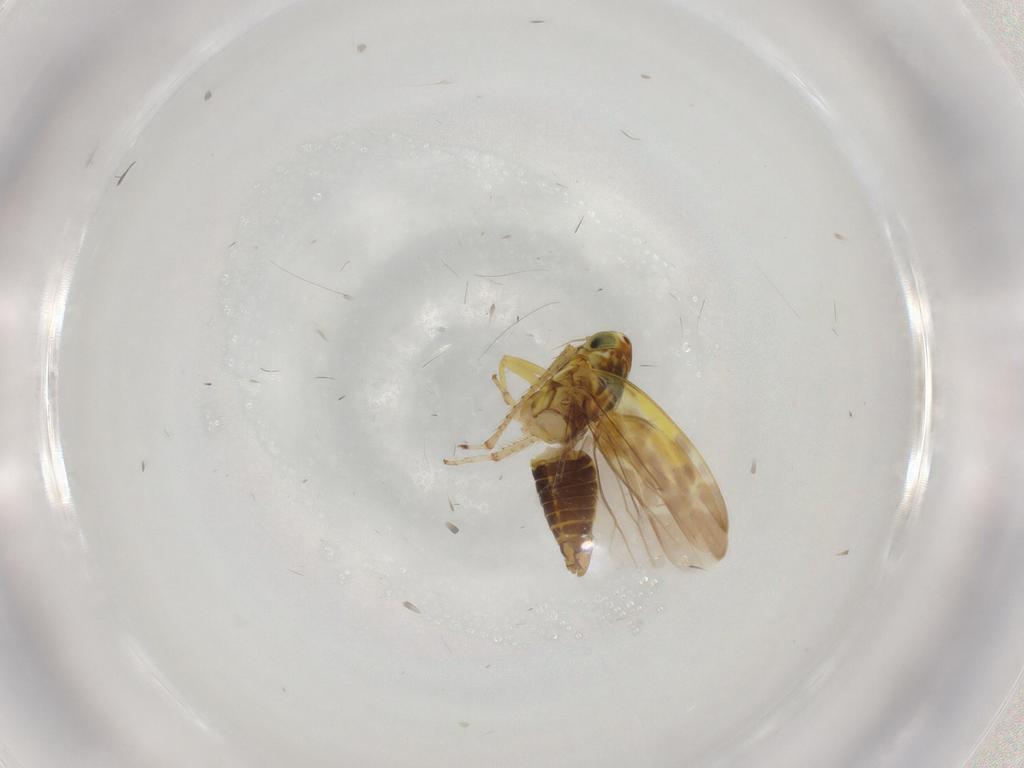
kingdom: Animalia
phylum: Arthropoda
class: Insecta
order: Hemiptera
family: Cicadellidae
